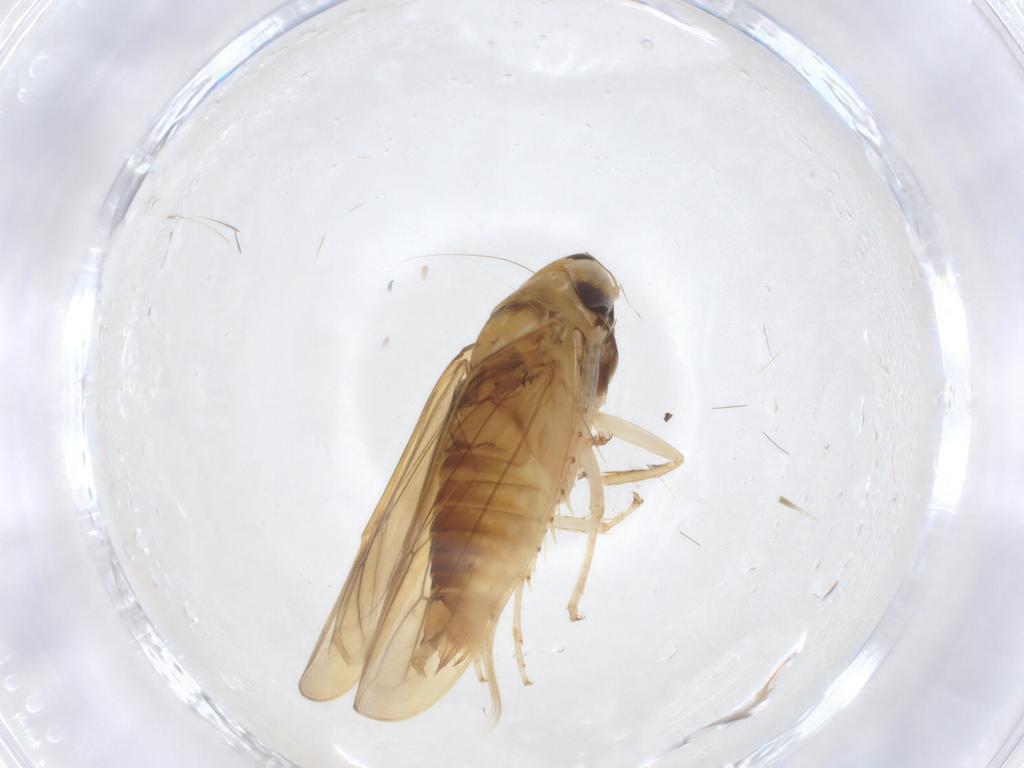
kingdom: Animalia
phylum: Arthropoda
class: Insecta
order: Hemiptera
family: Cicadellidae
